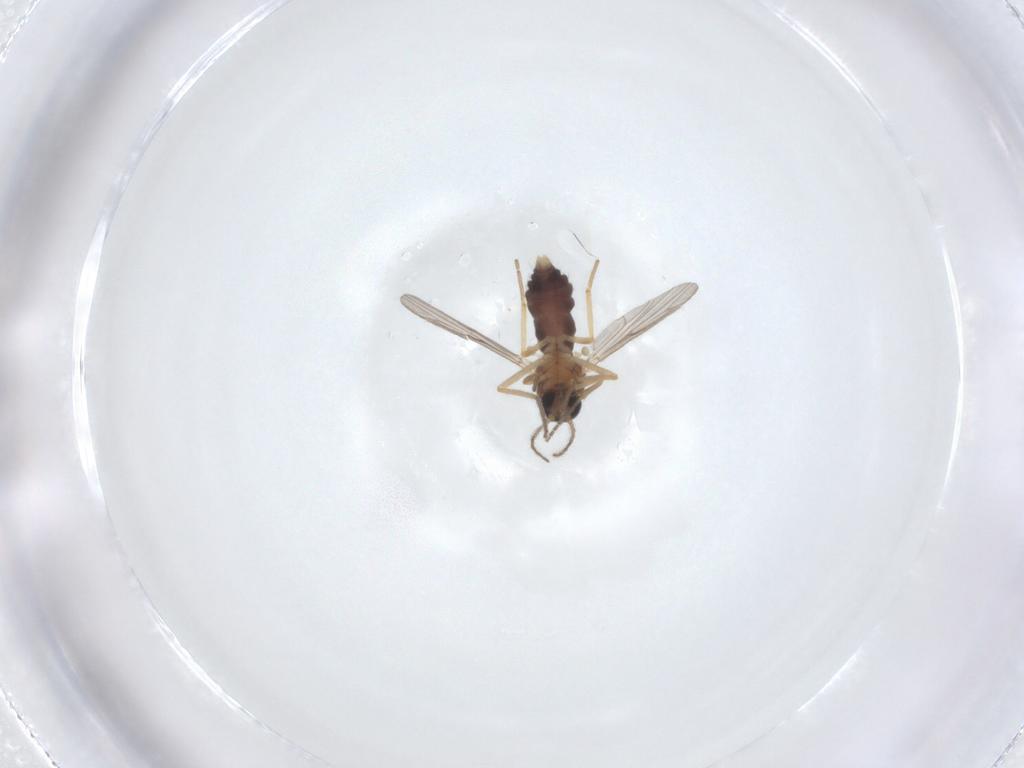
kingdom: Animalia
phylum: Arthropoda
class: Insecta
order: Diptera
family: Ceratopogonidae
